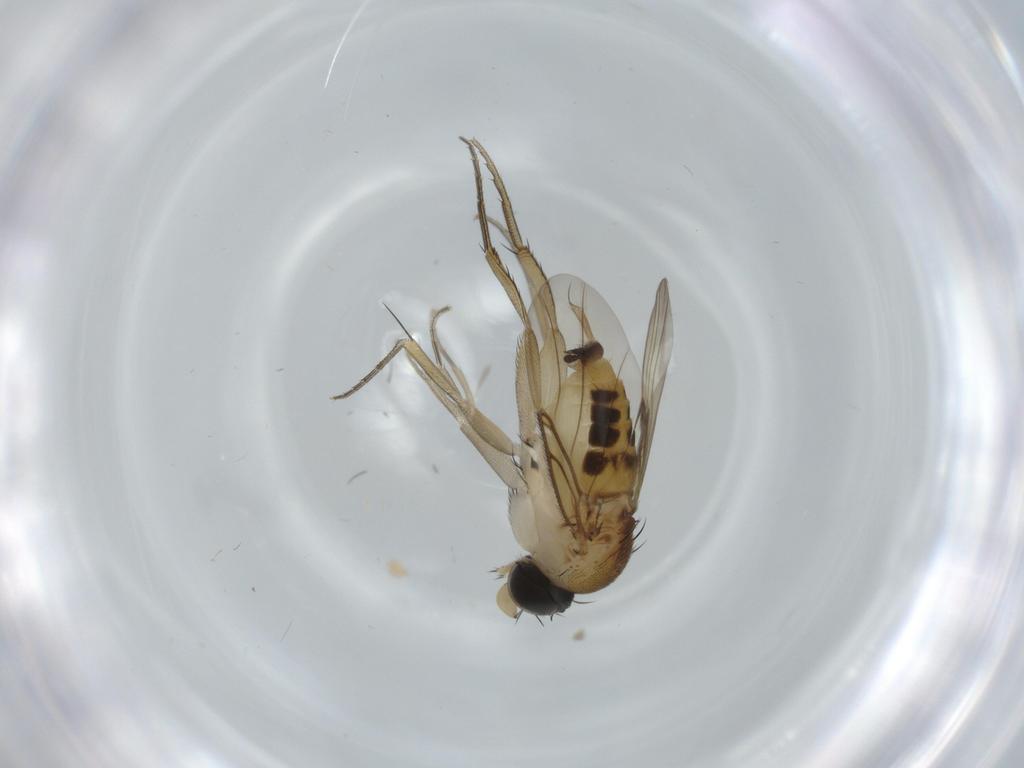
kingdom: Animalia
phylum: Arthropoda
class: Insecta
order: Diptera
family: Phoridae
